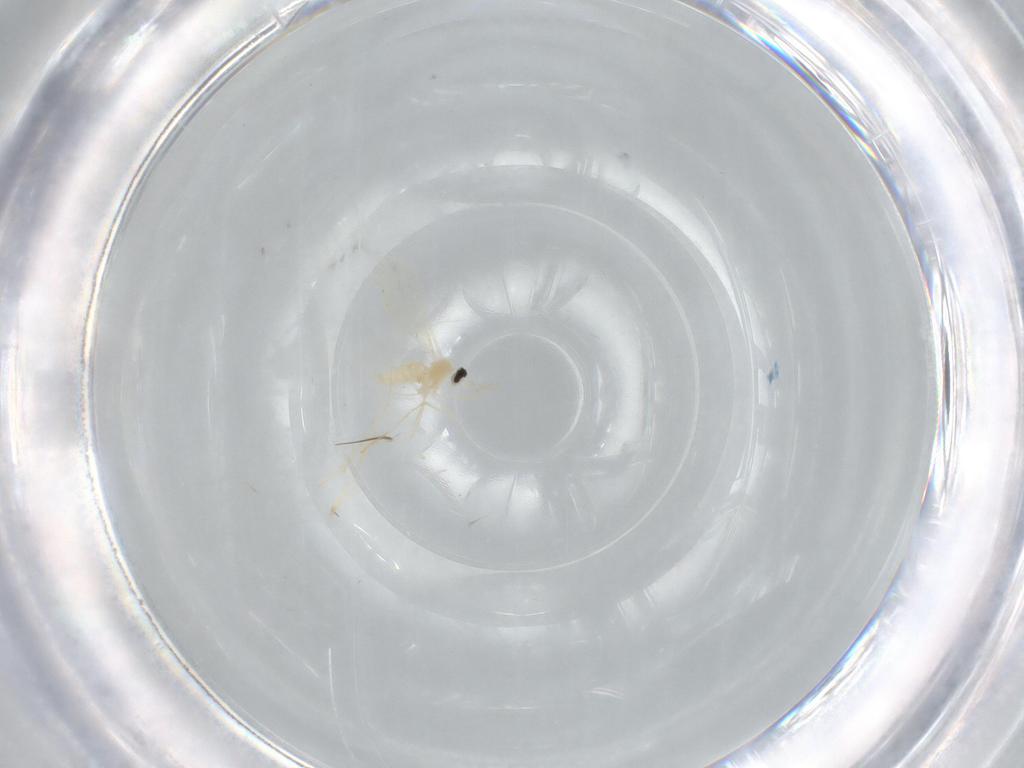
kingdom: Animalia
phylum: Arthropoda
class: Insecta
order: Diptera
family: Cecidomyiidae
